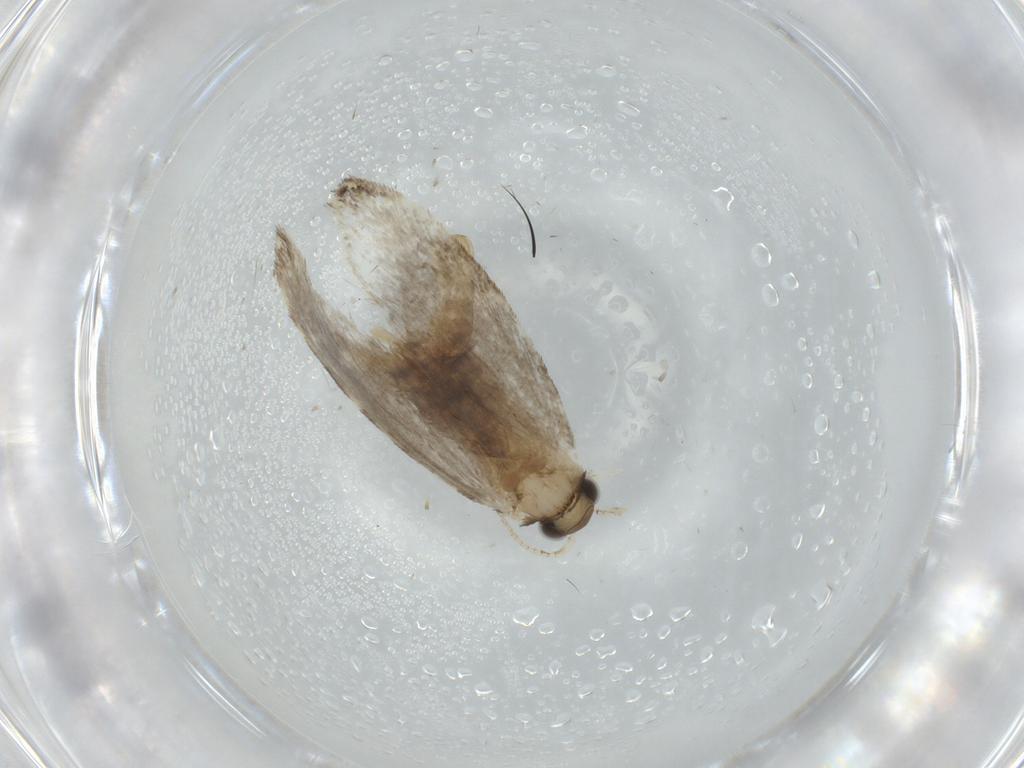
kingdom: Animalia
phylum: Arthropoda
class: Insecta
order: Lepidoptera
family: Tineidae
